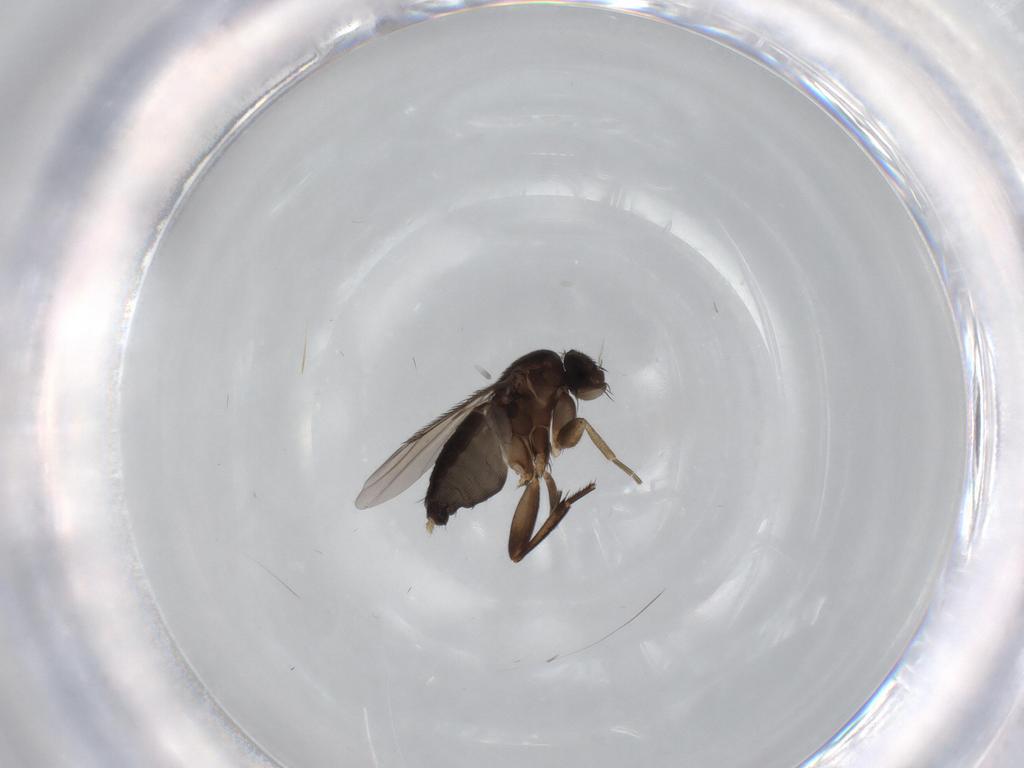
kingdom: Animalia
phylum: Arthropoda
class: Insecta
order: Diptera
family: Phoridae
